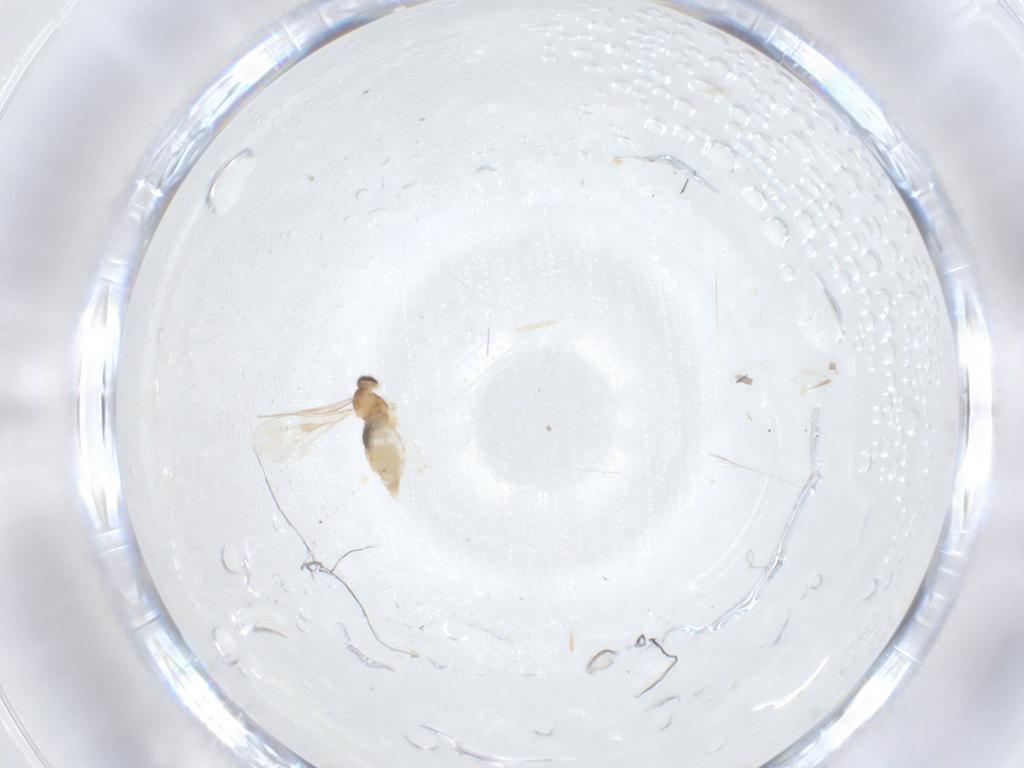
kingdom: Animalia
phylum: Arthropoda
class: Insecta
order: Diptera
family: Cecidomyiidae
